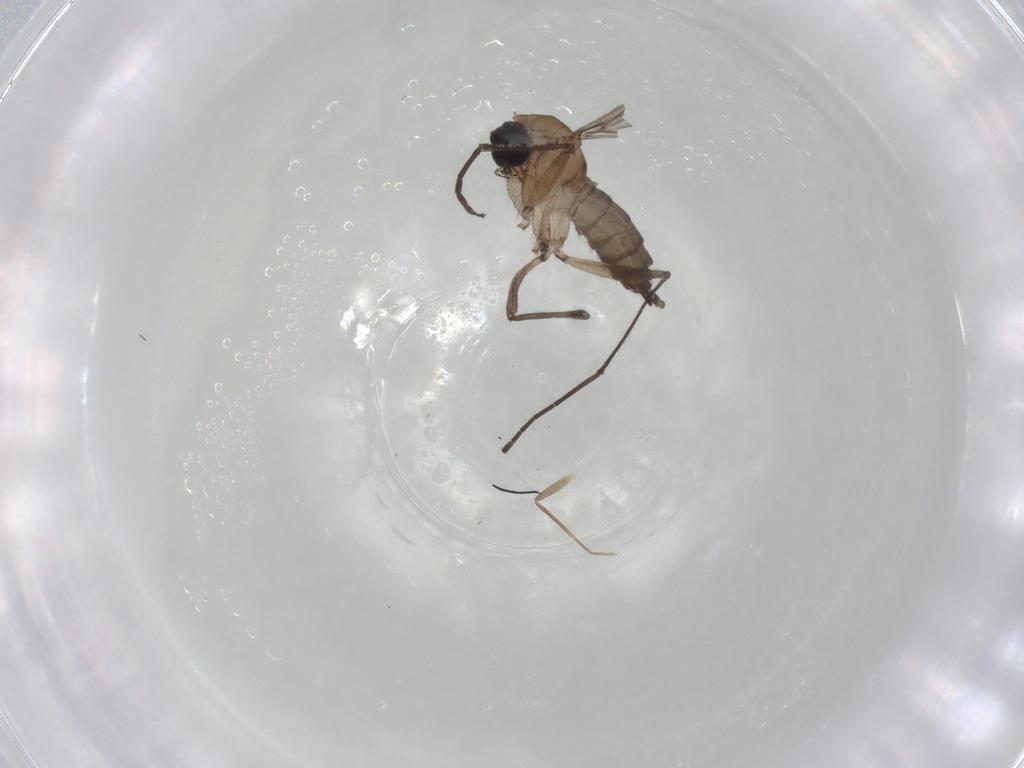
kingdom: Animalia
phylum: Arthropoda
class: Insecta
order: Diptera
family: Sciaridae
